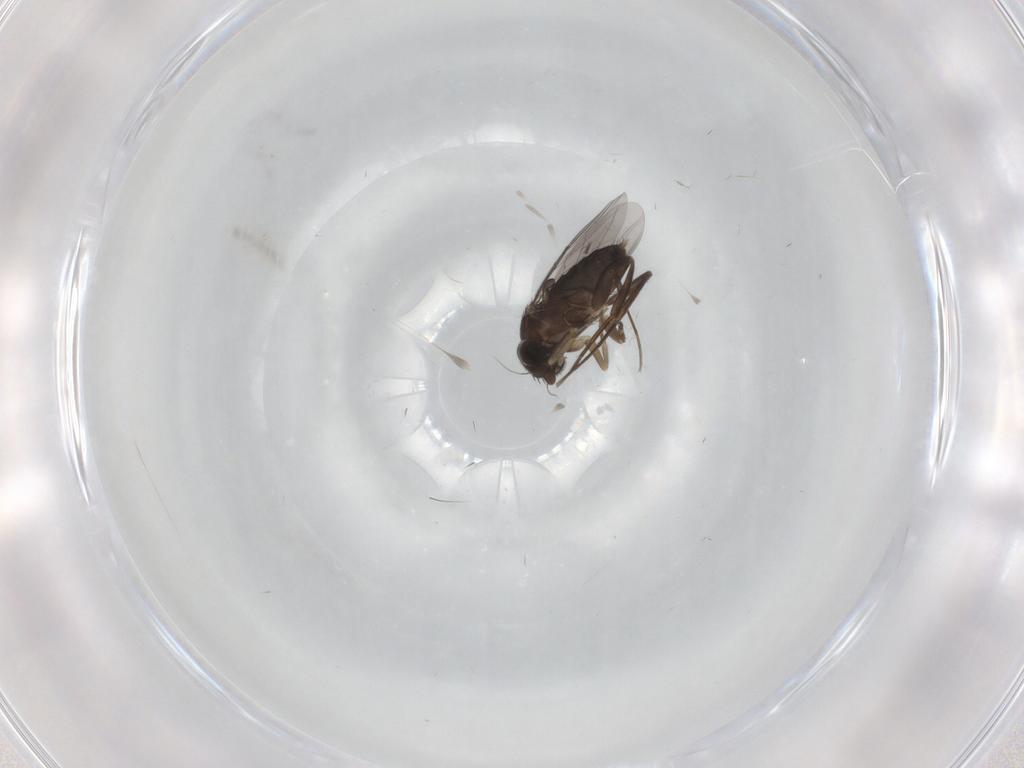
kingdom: Animalia
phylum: Arthropoda
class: Insecta
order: Diptera
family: Phoridae
